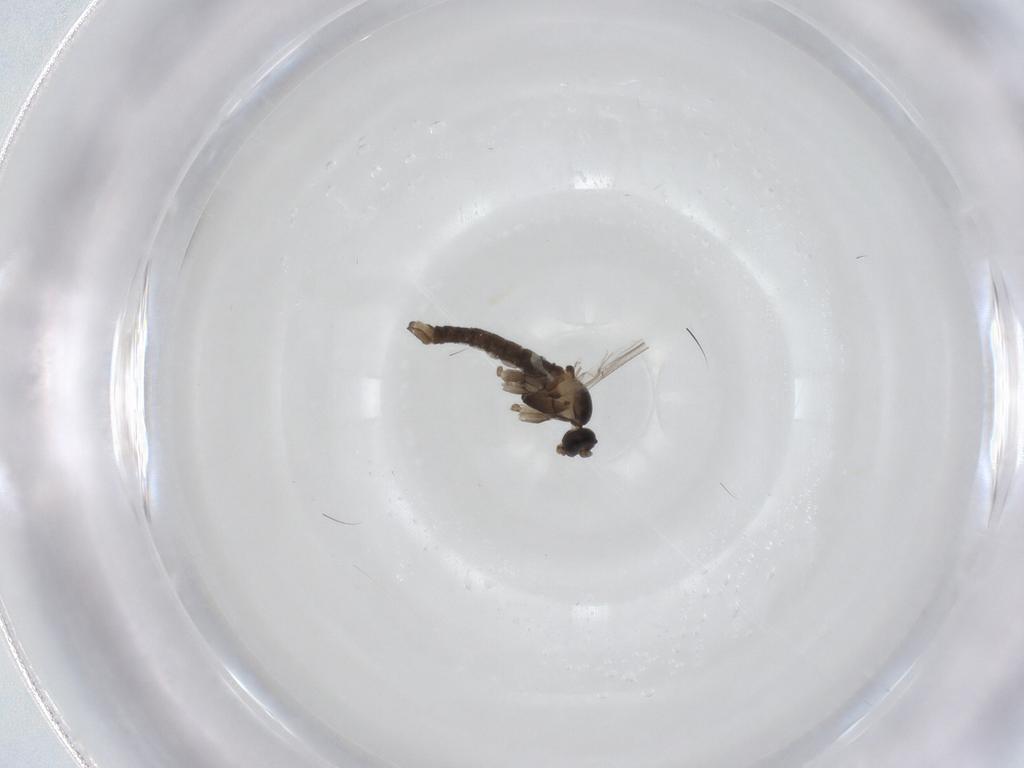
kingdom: Animalia
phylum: Arthropoda
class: Insecta
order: Diptera
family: Cecidomyiidae
